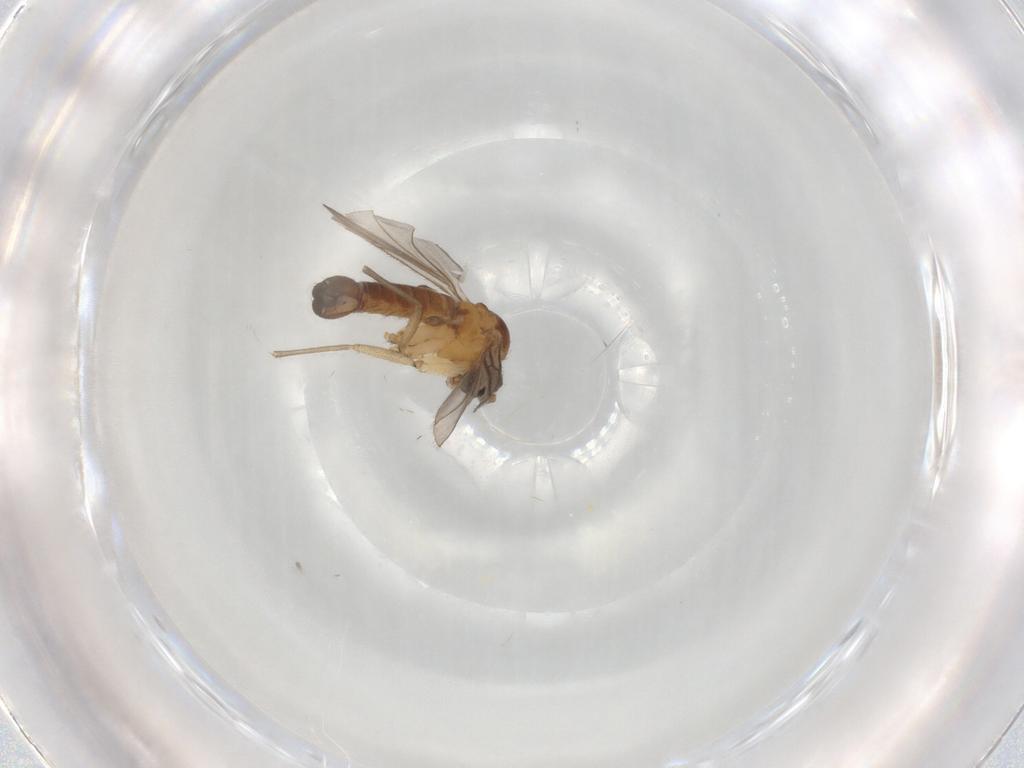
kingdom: Animalia
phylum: Arthropoda
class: Insecta
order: Diptera
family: Sciaridae
